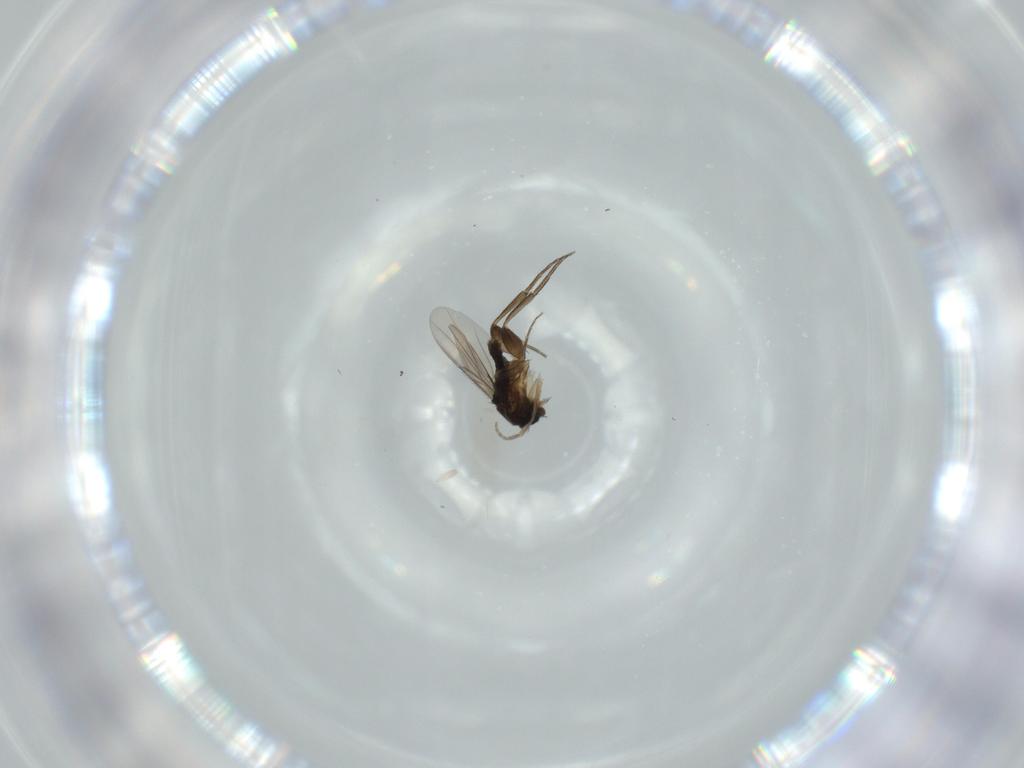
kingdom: Animalia
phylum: Arthropoda
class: Insecta
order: Diptera
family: Phoridae
